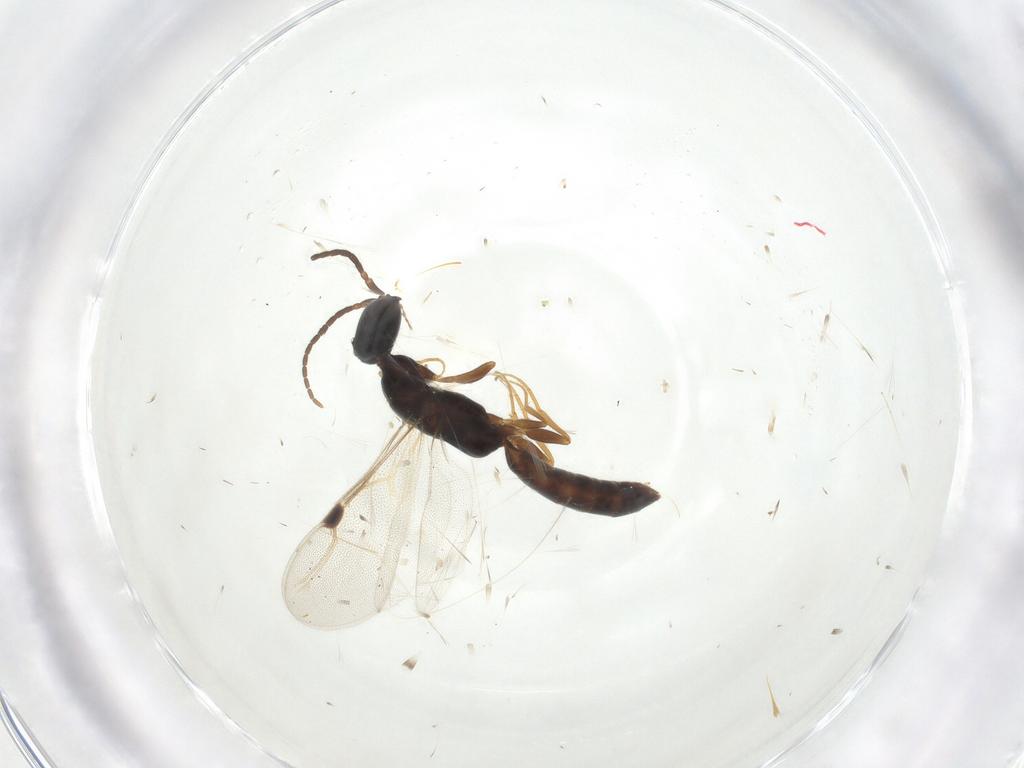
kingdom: Animalia
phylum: Arthropoda
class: Insecta
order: Hymenoptera
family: Bethylidae
